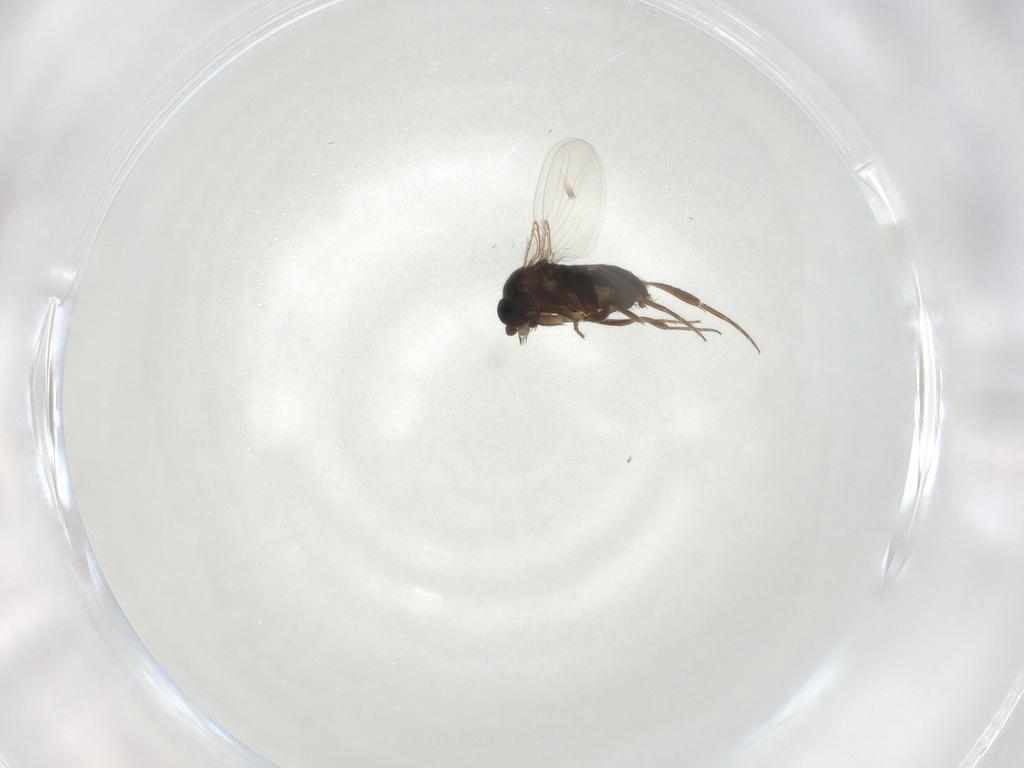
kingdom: Animalia
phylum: Arthropoda
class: Insecta
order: Diptera
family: Phoridae
